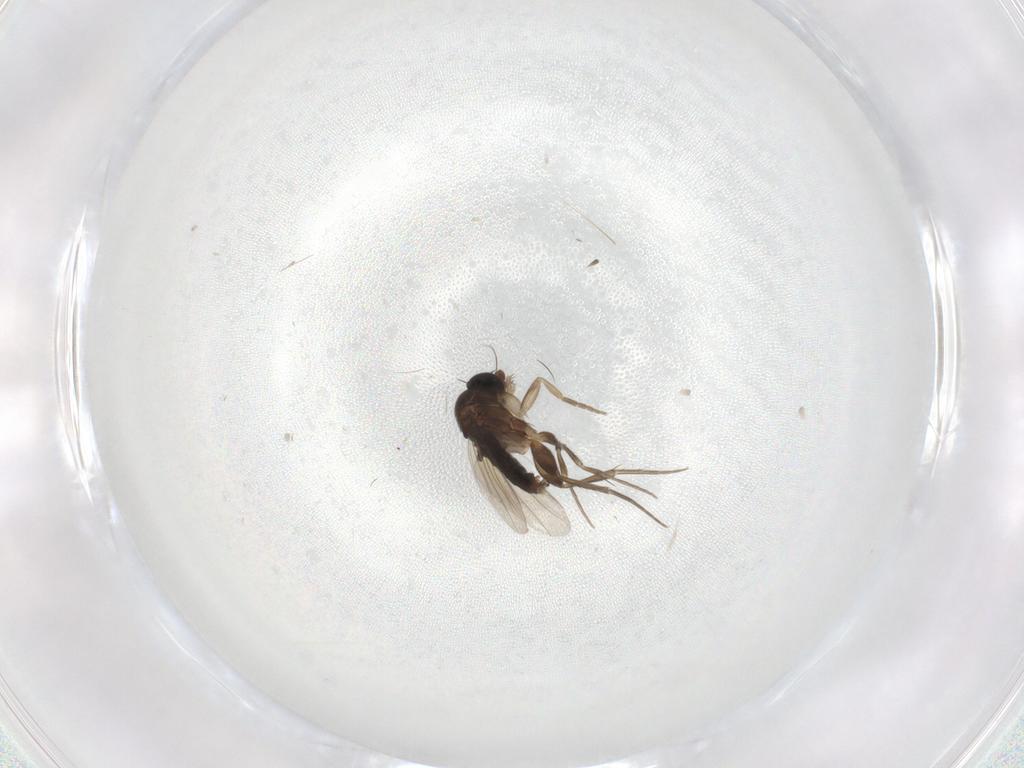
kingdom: Animalia
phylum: Arthropoda
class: Insecta
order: Diptera
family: Phoridae
